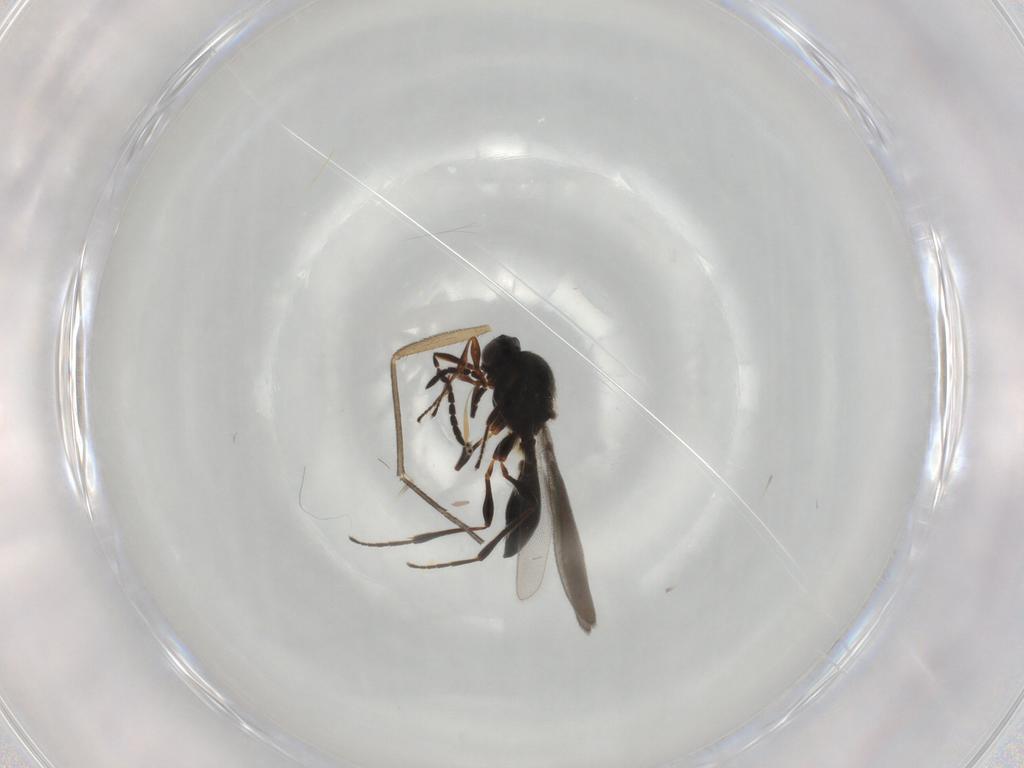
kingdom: Animalia
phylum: Arthropoda
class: Insecta
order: Hymenoptera
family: Platygastridae
